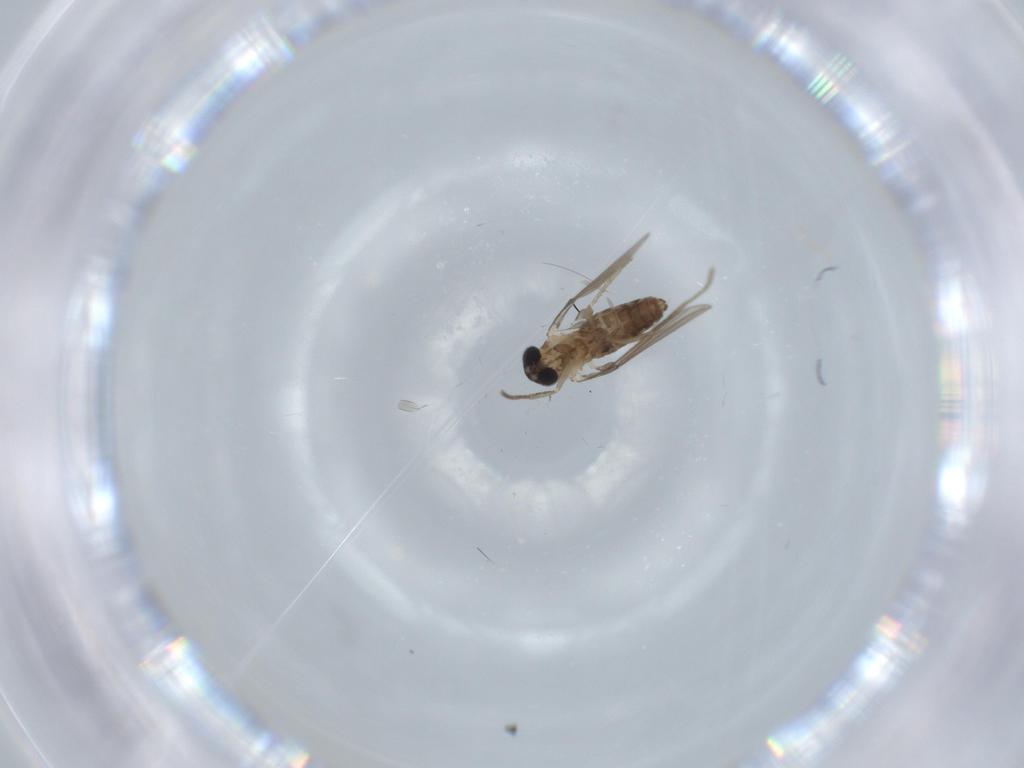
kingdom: Animalia
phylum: Arthropoda
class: Insecta
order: Diptera
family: Psychodidae
